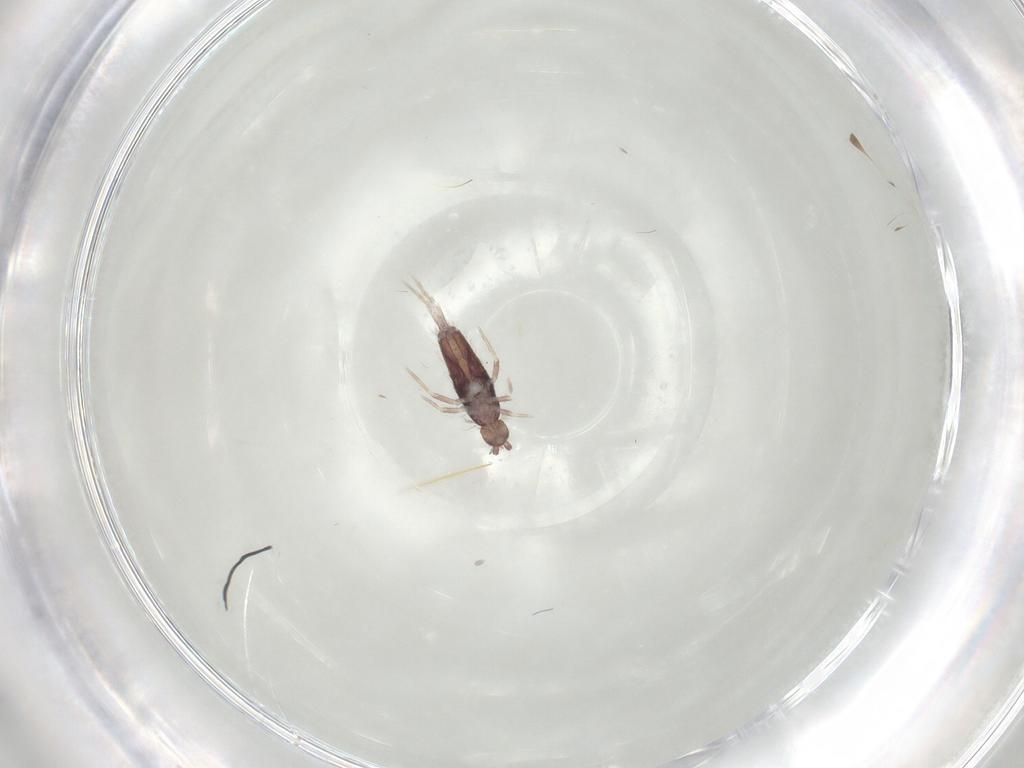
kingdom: Animalia
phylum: Arthropoda
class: Collembola
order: Entomobryomorpha
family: Entomobryidae
